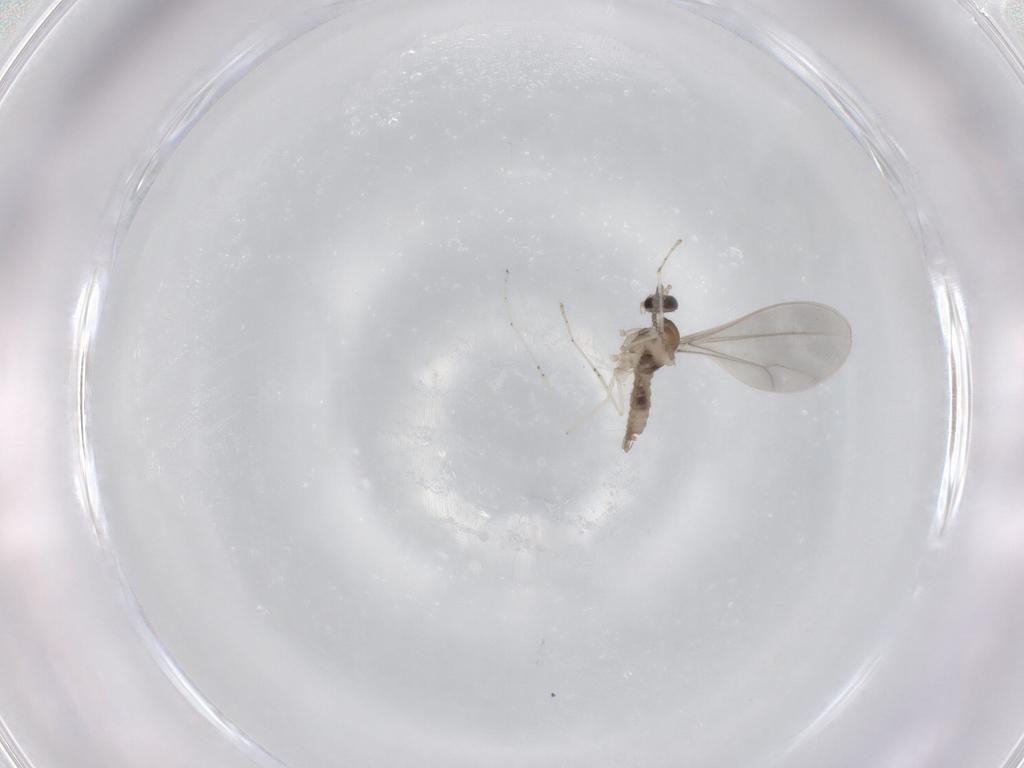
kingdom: Animalia
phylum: Arthropoda
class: Insecta
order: Diptera
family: Cecidomyiidae
